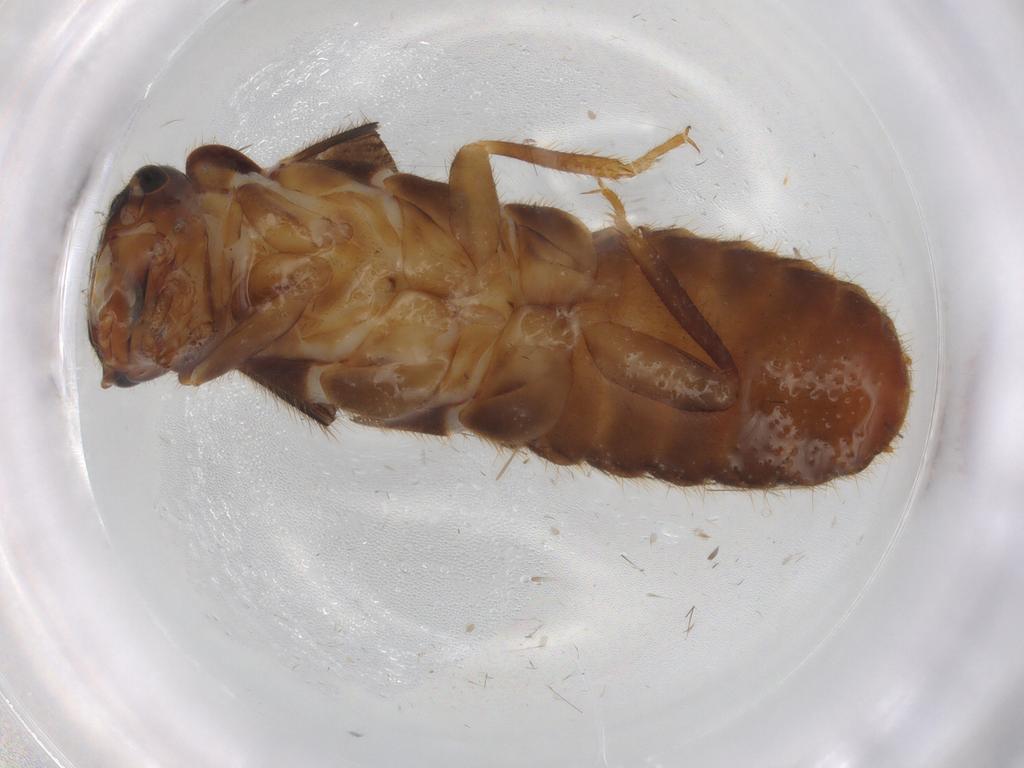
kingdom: Animalia
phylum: Arthropoda
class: Insecta
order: Blattodea
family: Rhinotermitidae
